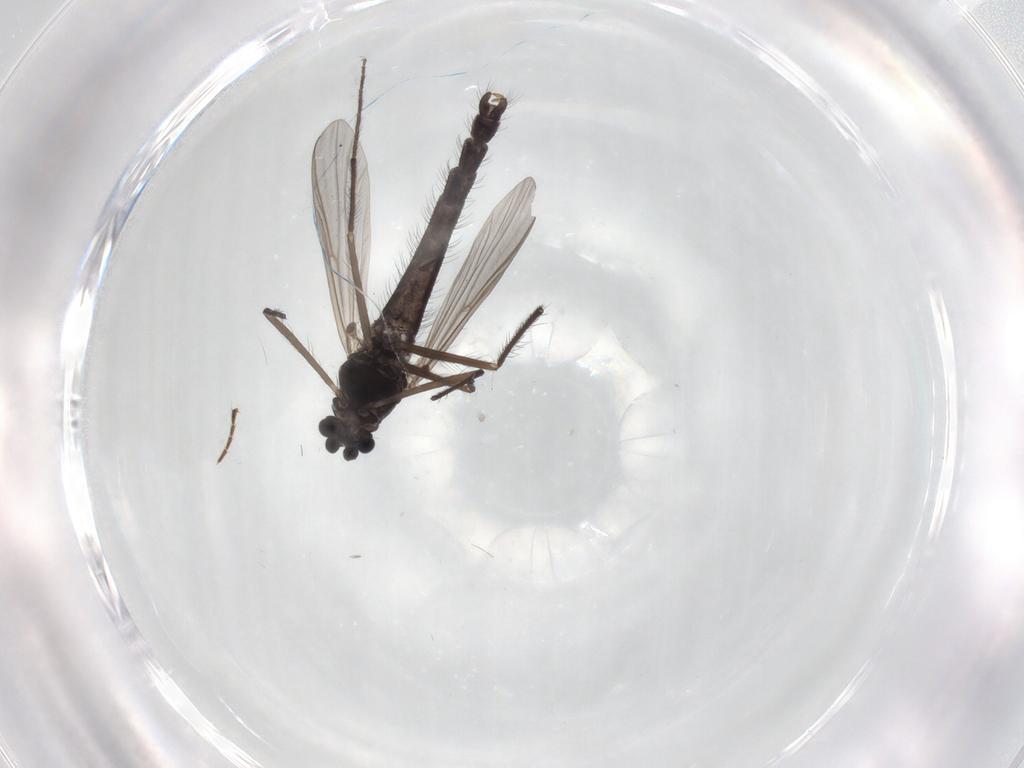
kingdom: Animalia
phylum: Arthropoda
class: Insecta
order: Diptera
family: Chironomidae
